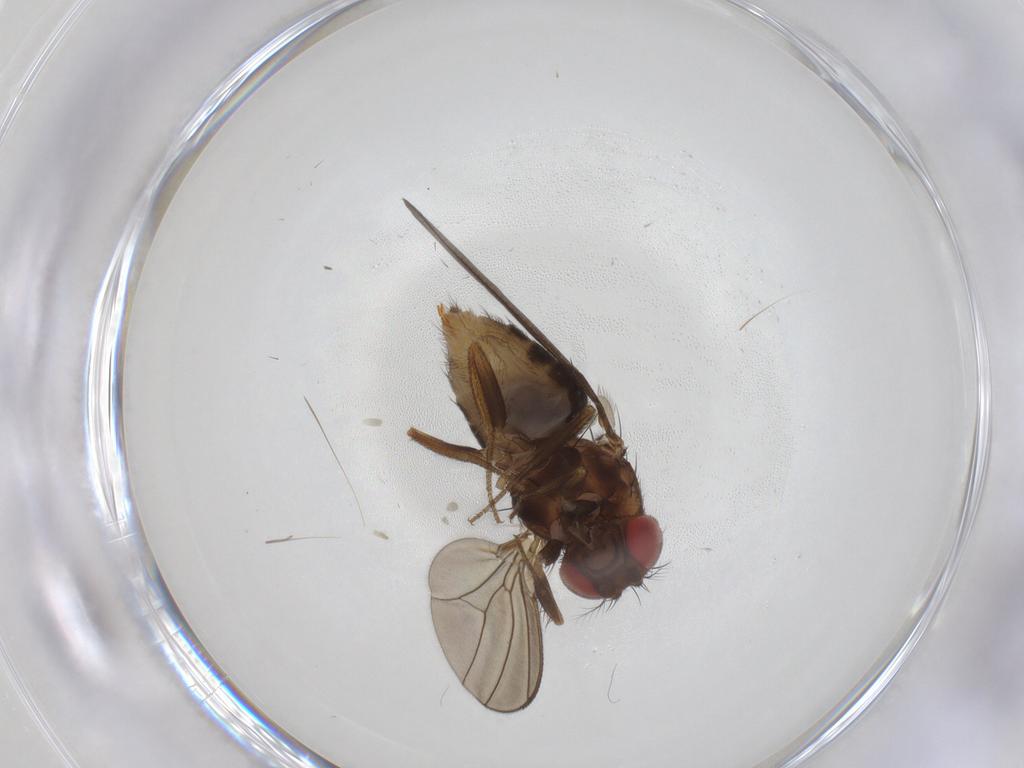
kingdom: Animalia
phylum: Arthropoda
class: Insecta
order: Diptera
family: Drosophilidae
